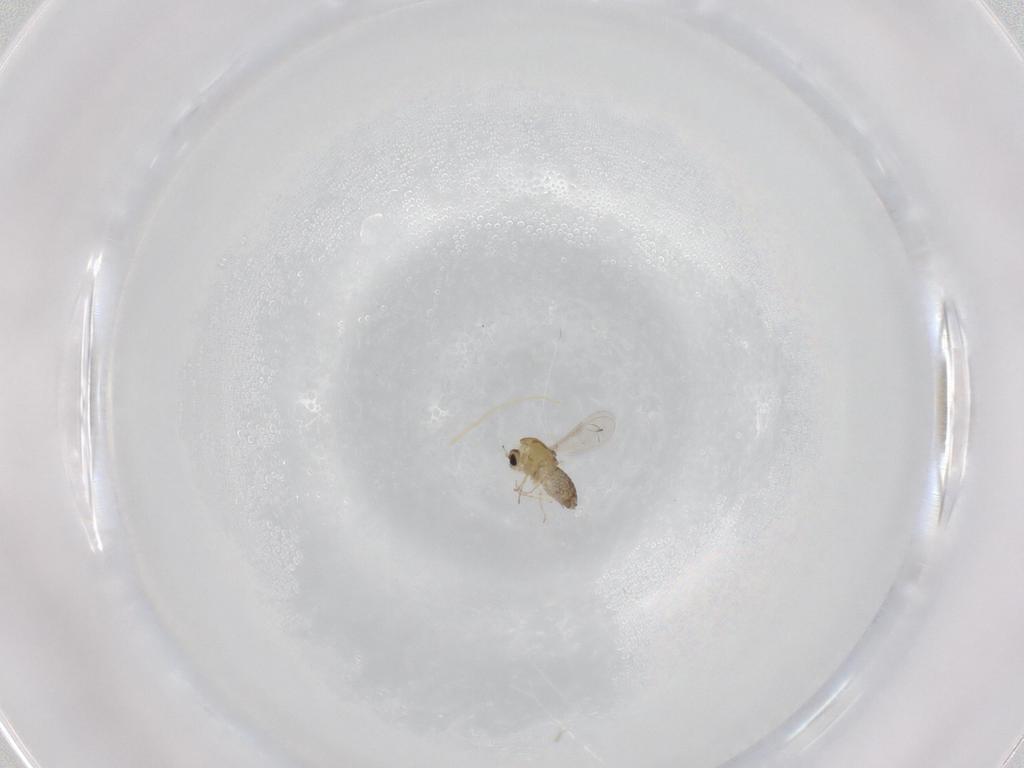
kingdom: Animalia
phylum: Arthropoda
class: Insecta
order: Diptera
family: Chironomidae
